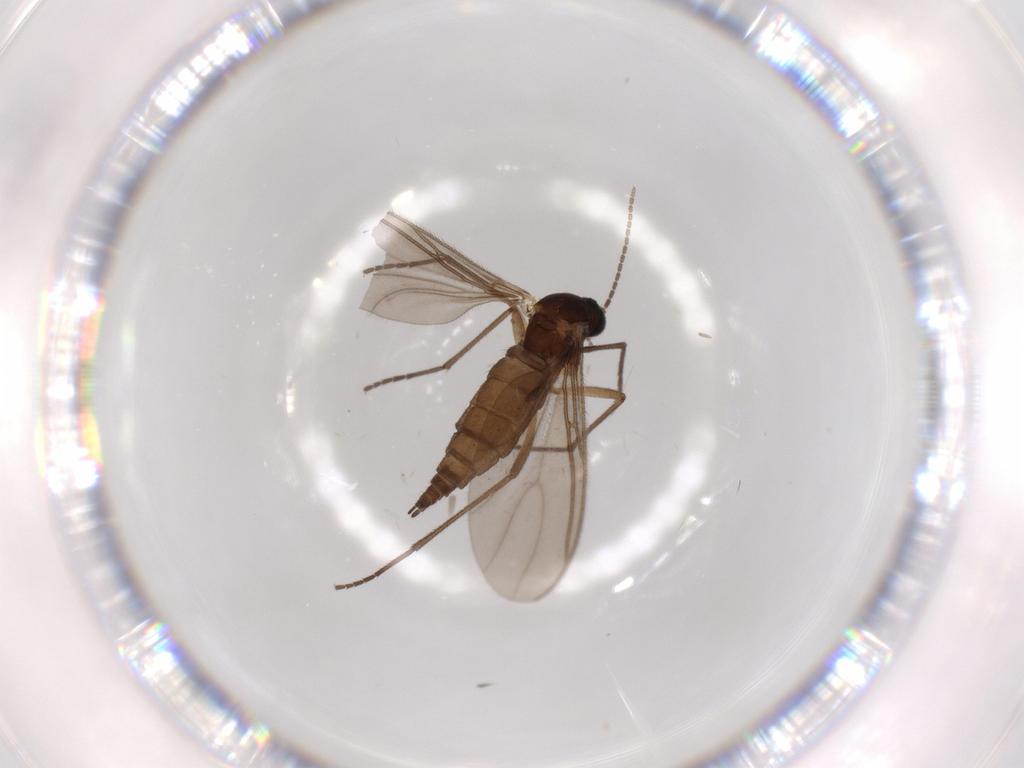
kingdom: Animalia
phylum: Arthropoda
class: Insecta
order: Diptera
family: Sciaridae
